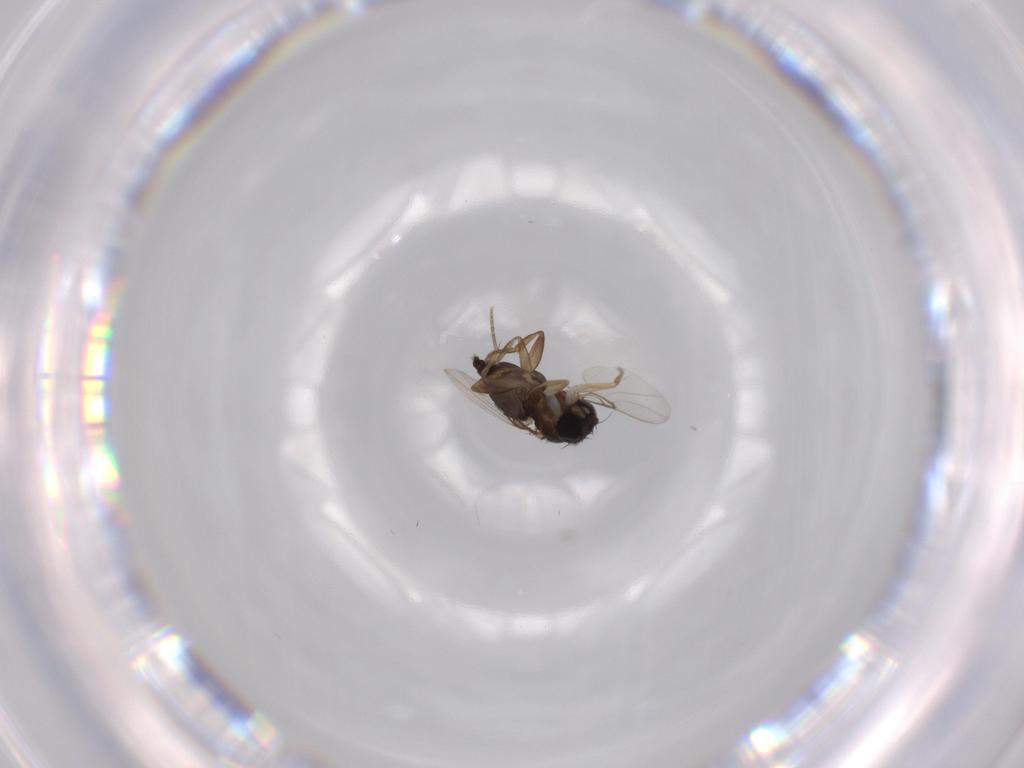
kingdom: Animalia
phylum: Arthropoda
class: Insecta
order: Diptera
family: Phoridae
